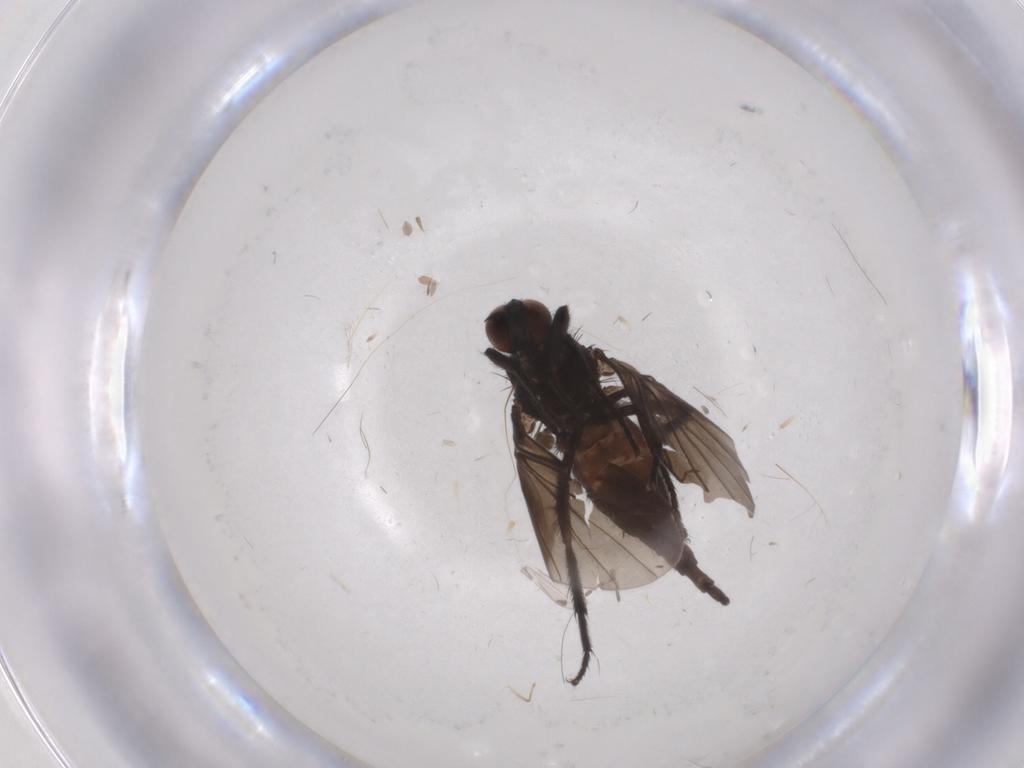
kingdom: Animalia
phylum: Arthropoda
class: Insecta
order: Diptera
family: Empididae
